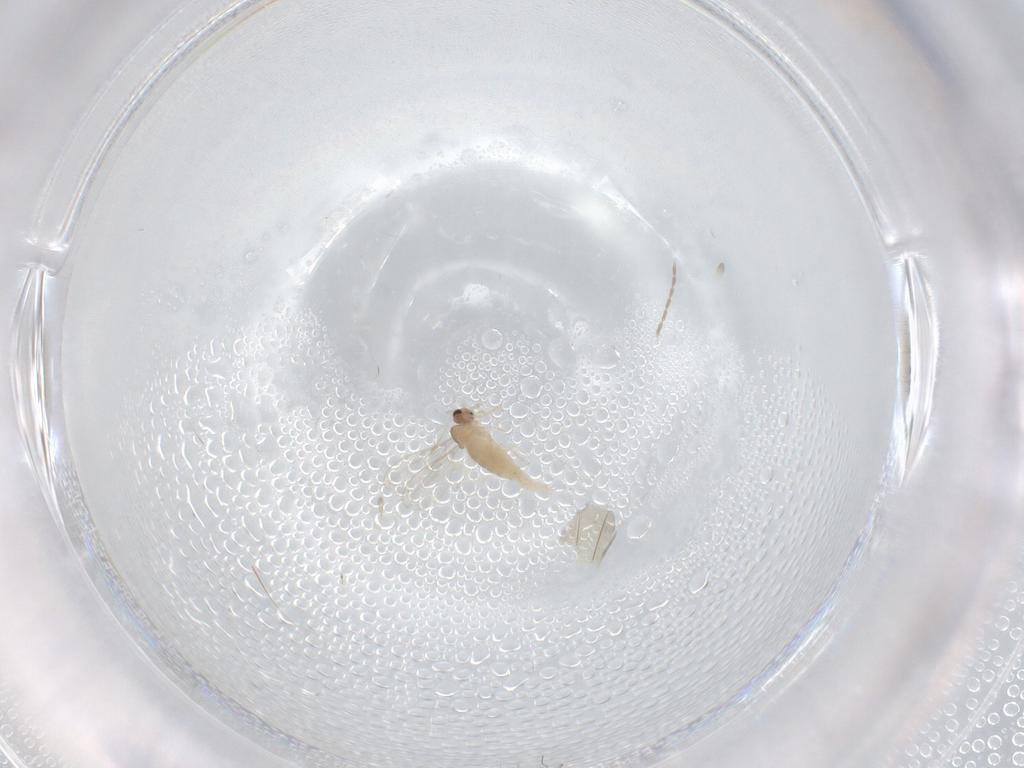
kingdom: Animalia
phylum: Arthropoda
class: Insecta
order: Diptera
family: Cecidomyiidae
